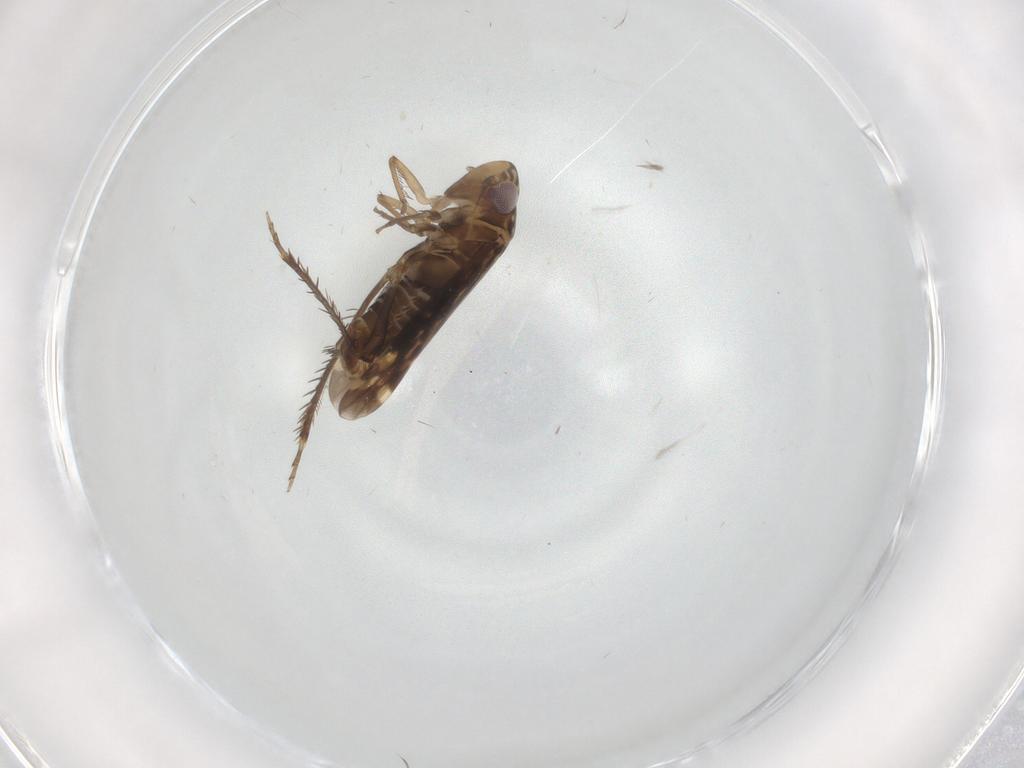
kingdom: Animalia
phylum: Arthropoda
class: Insecta
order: Hemiptera
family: Cicadellidae
